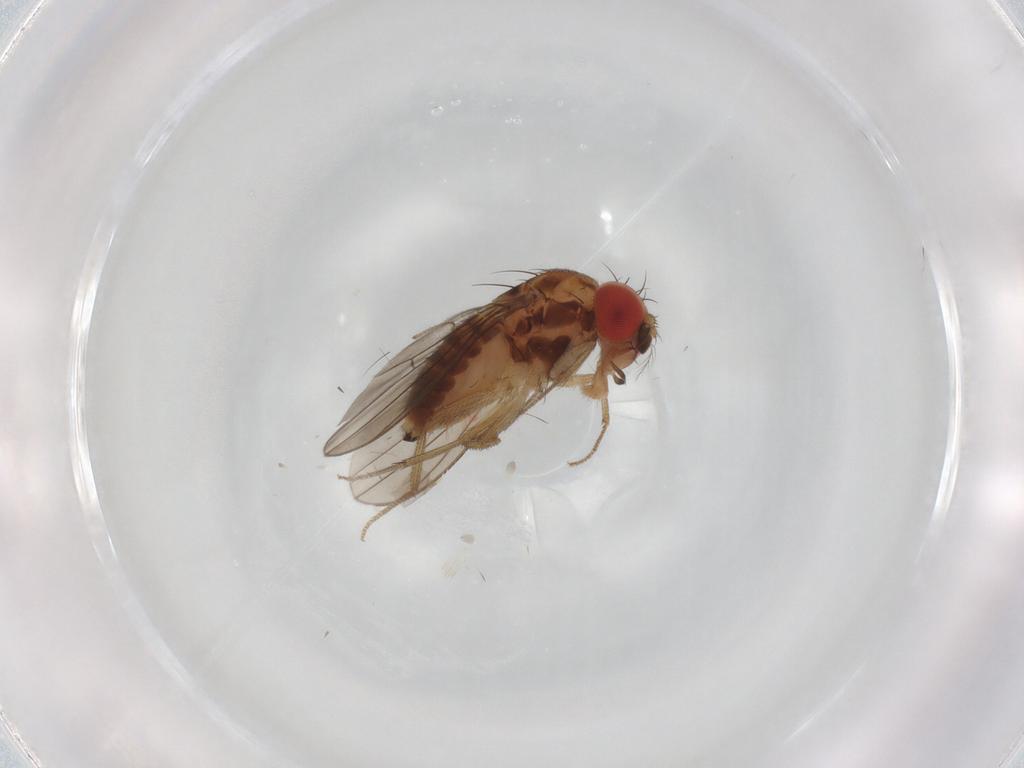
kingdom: Animalia
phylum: Arthropoda
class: Insecta
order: Diptera
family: Drosophilidae
